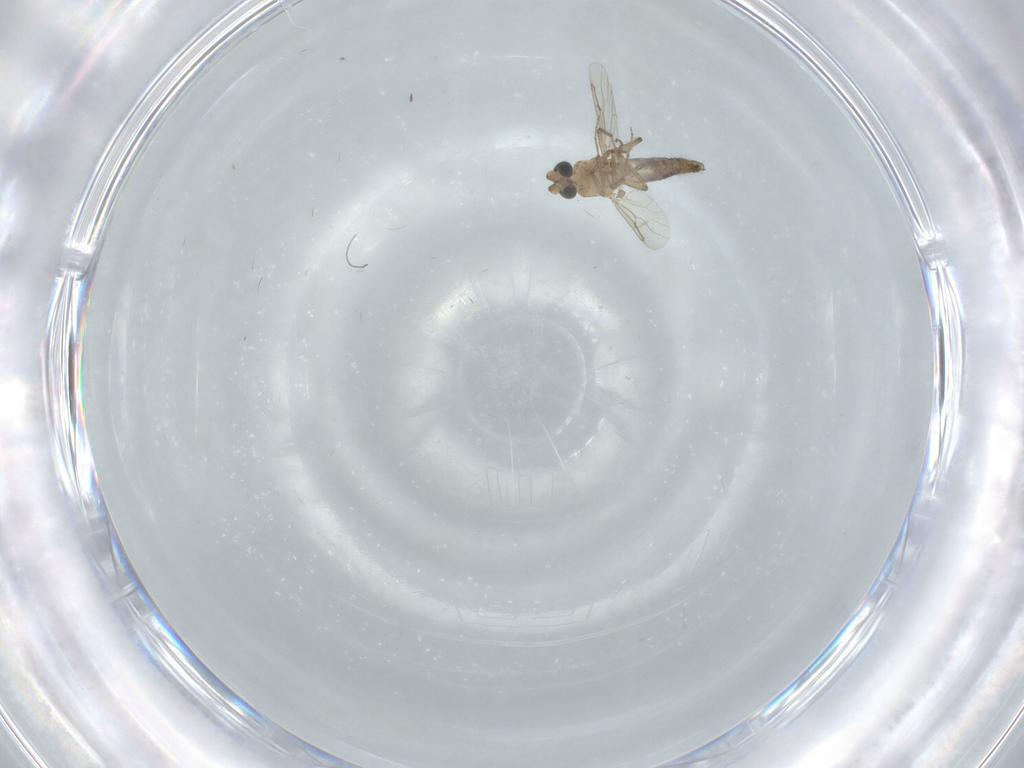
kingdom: Animalia
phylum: Arthropoda
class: Insecta
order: Diptera
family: Ceratopogonidae
